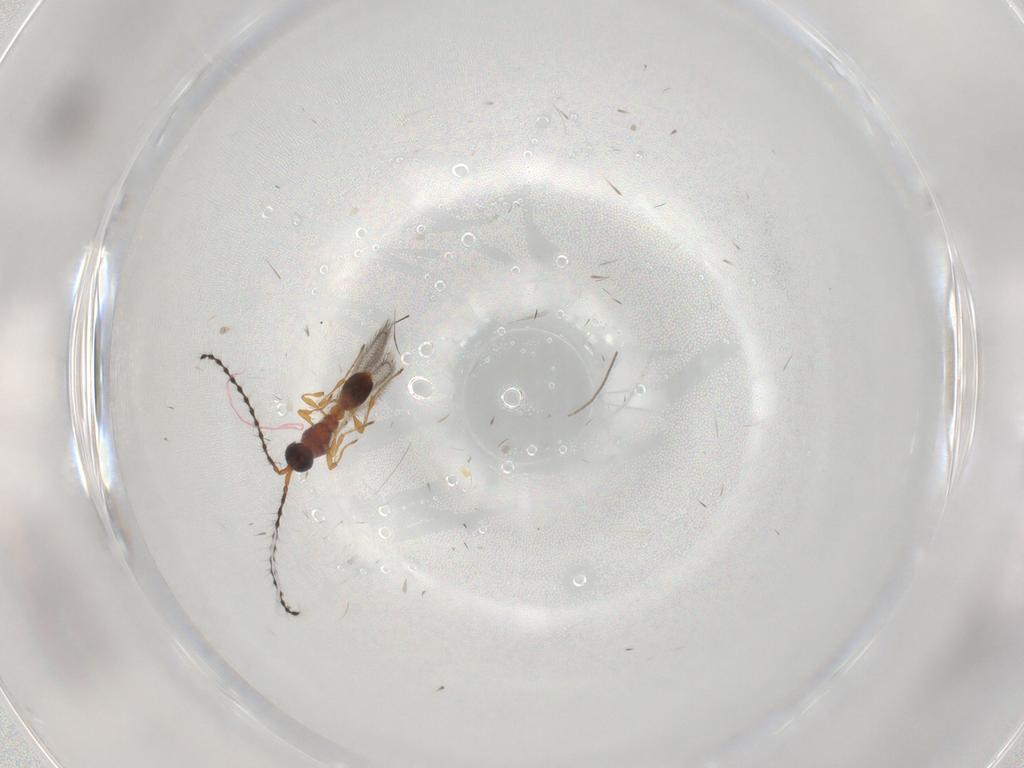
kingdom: Animalia
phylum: Arthropoda
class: Insecta
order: Hymenoptera
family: Diapriidae
